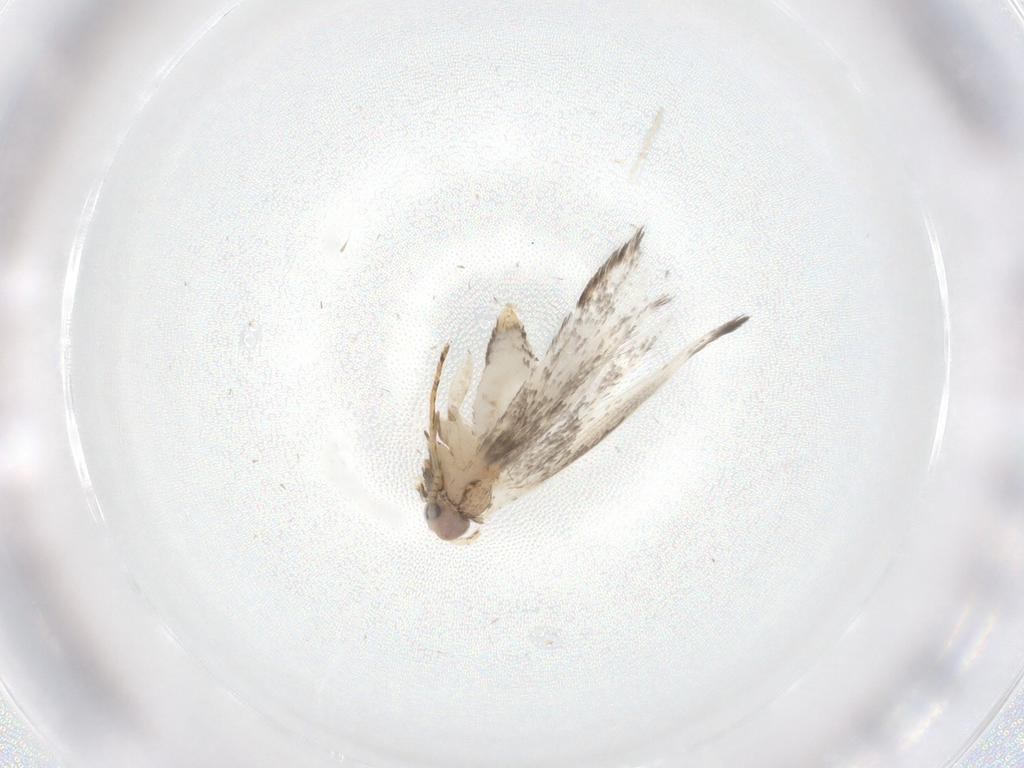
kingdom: Animalia
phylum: Arthropoda
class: Insecta
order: Lepidoptera
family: Tineidae
